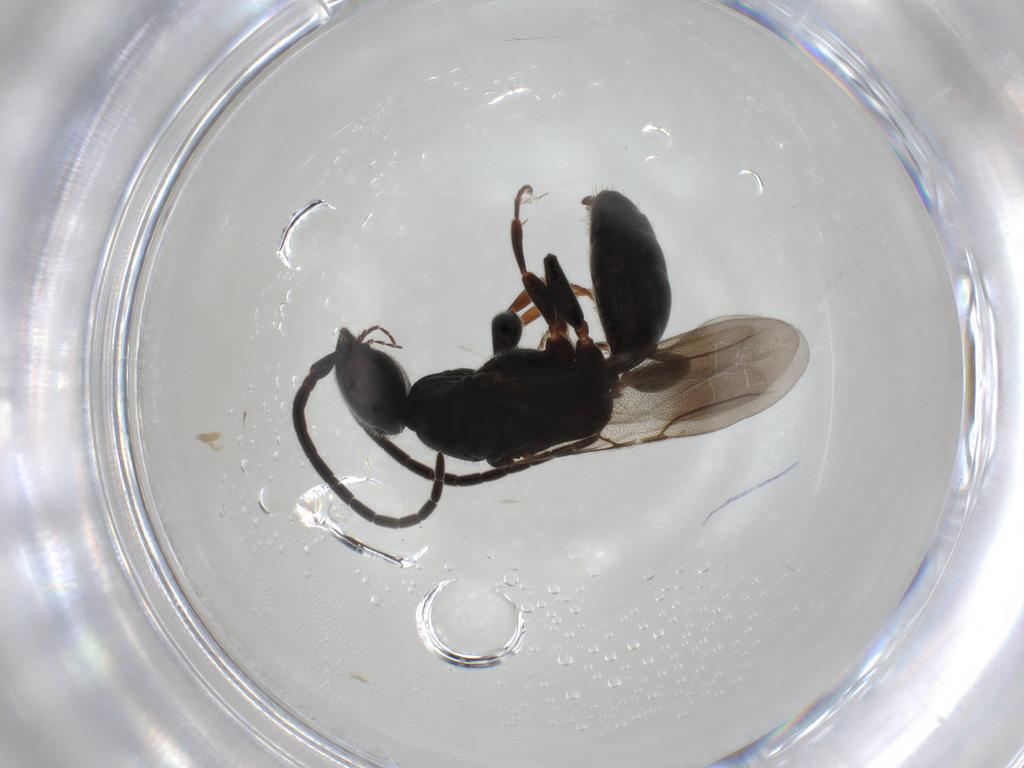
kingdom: Animalia
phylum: Arthropoda
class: Insecta
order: Hymenoptera
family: Bethylidae
